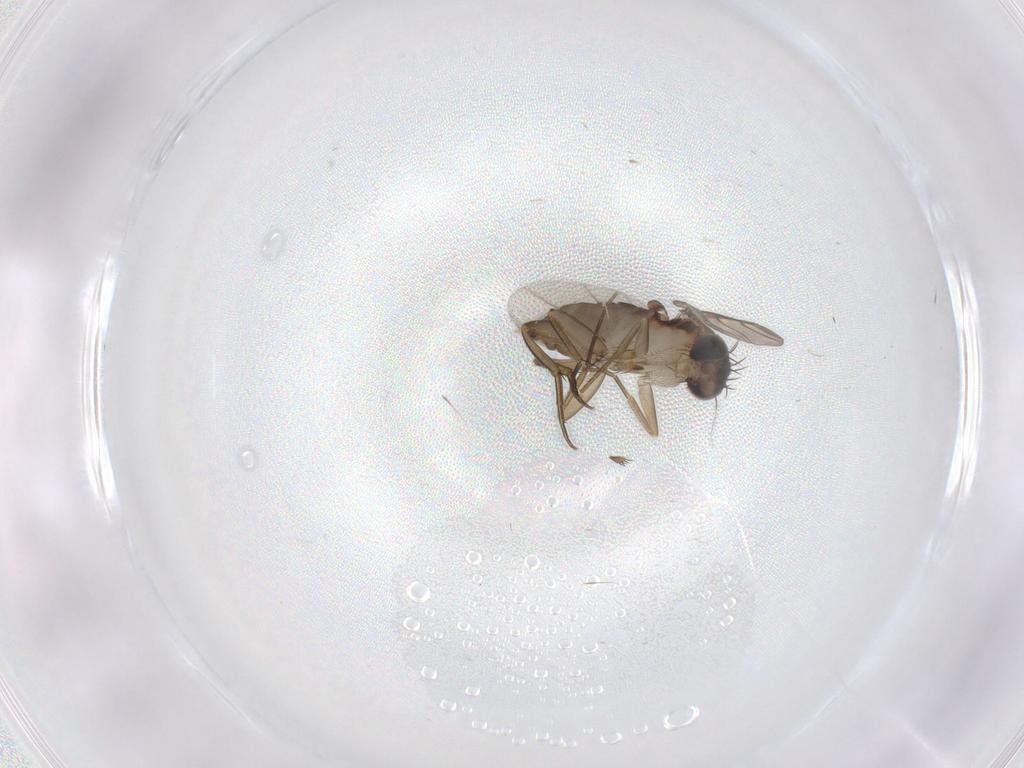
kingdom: Animalia
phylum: Arthropoda
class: Insecta
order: Diptera
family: Phoridae
